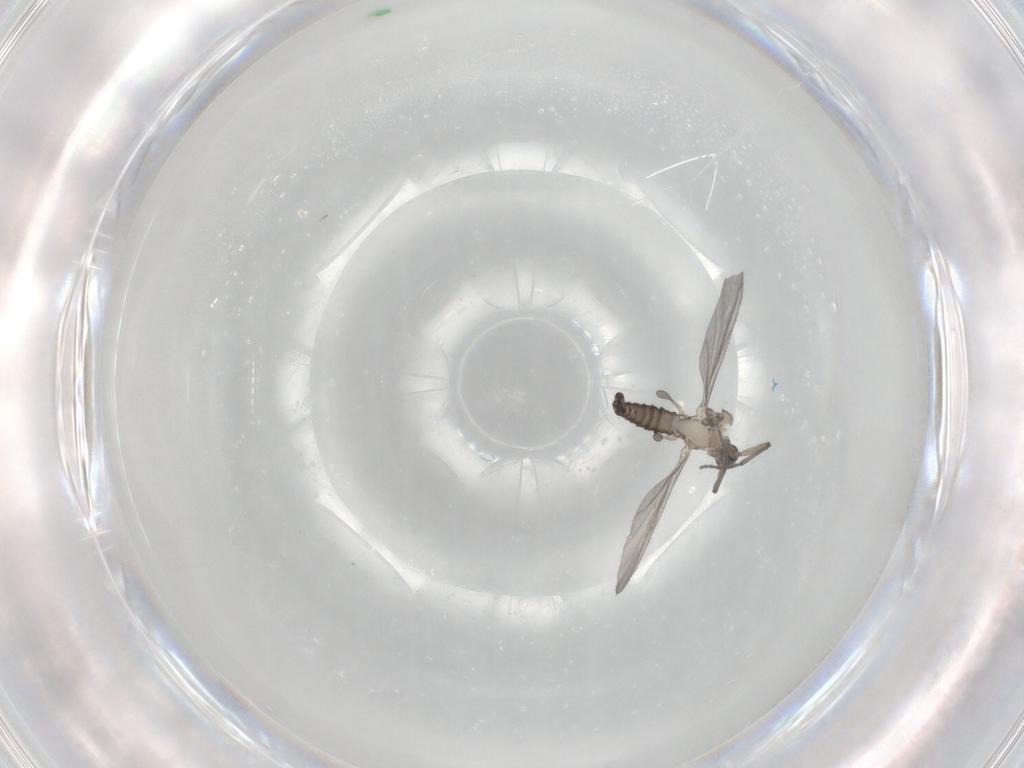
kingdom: Animalia
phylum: Arthropoda
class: Insecta
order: Diptera
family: Sciaridae
